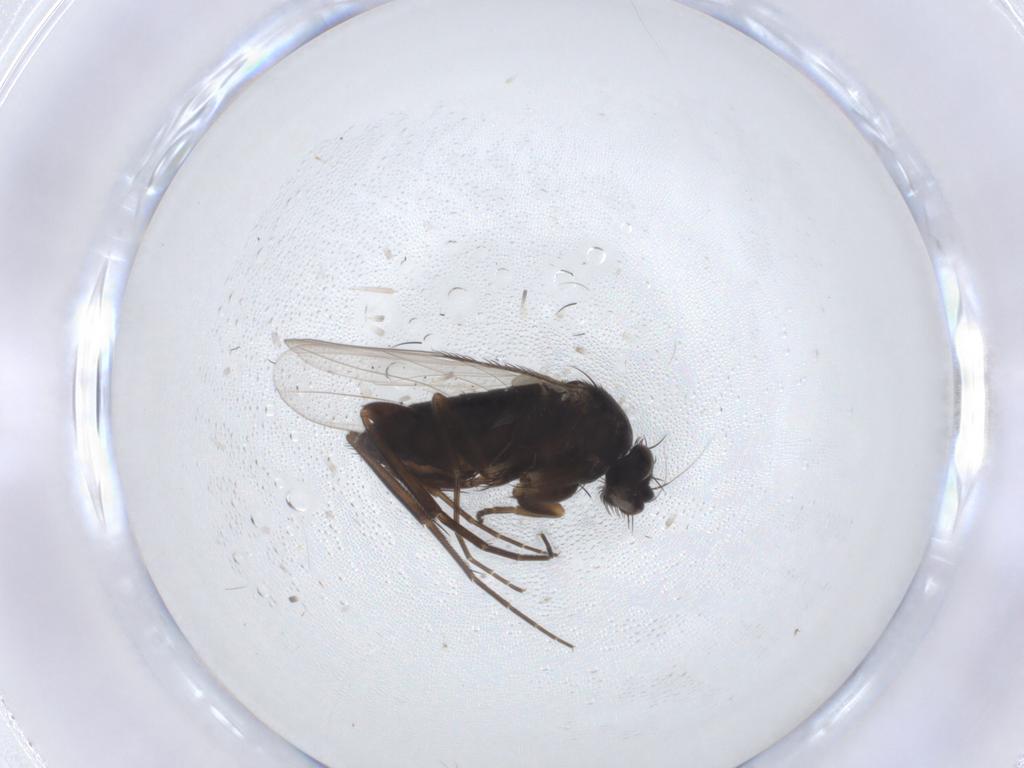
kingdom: Animalia
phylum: Arthropoda
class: Insecta
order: Diptera
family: Phoridae
